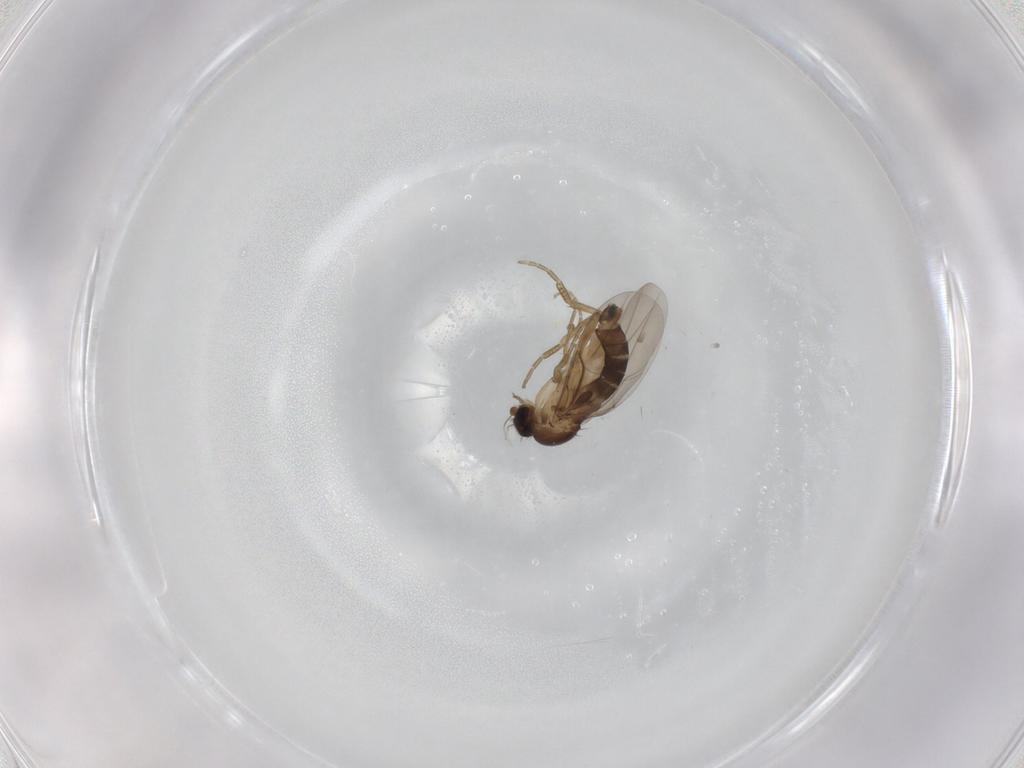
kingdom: Animalia
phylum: Arthropoda
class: Insecta
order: Diptera
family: Phoridae
